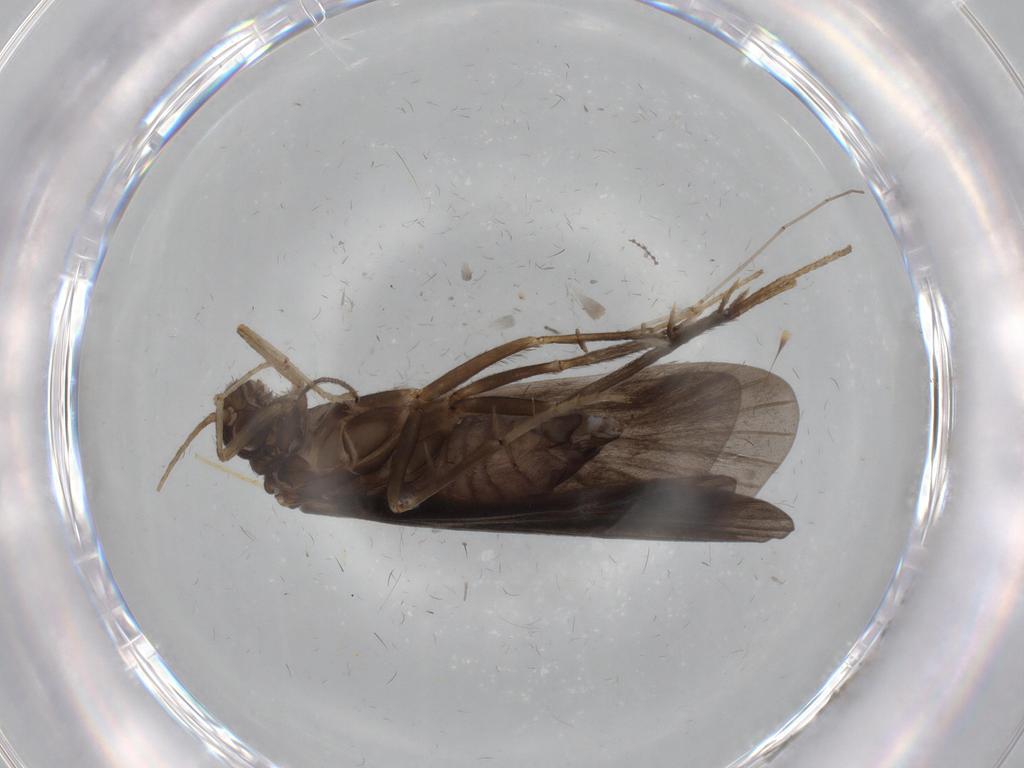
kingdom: Animalia
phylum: Arthropoda
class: Insecta
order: Trichoptera
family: Hydropsychidae
